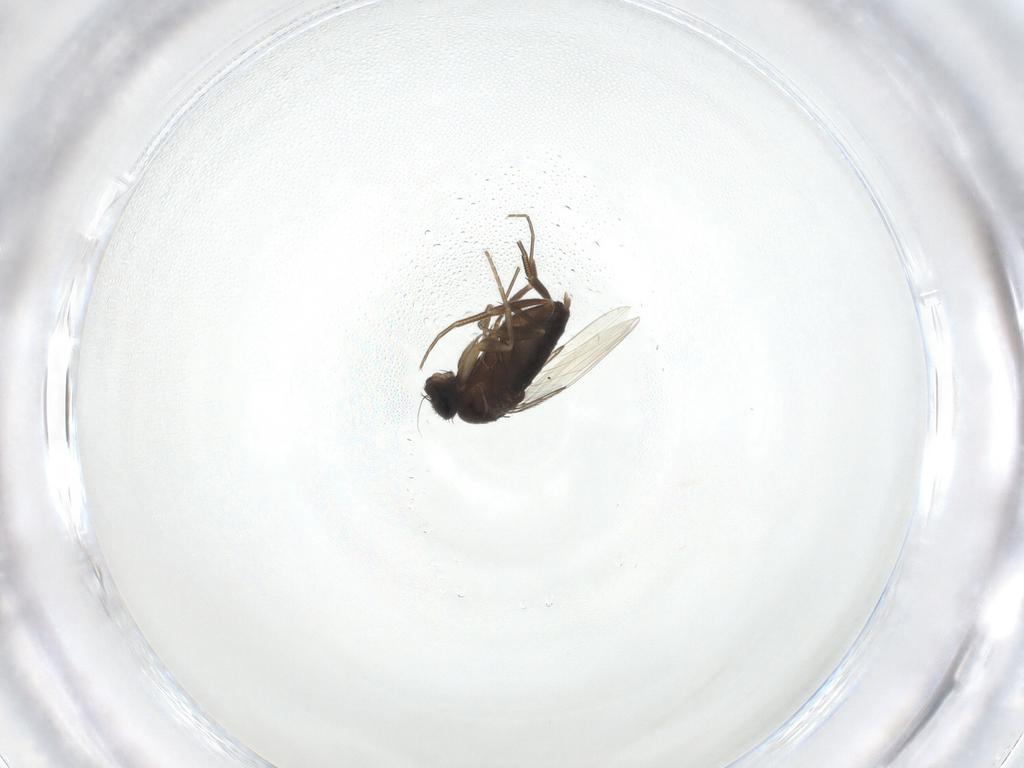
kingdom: Animalia
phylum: Arthropoda
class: Insecta
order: Diptera
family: Phoridae
